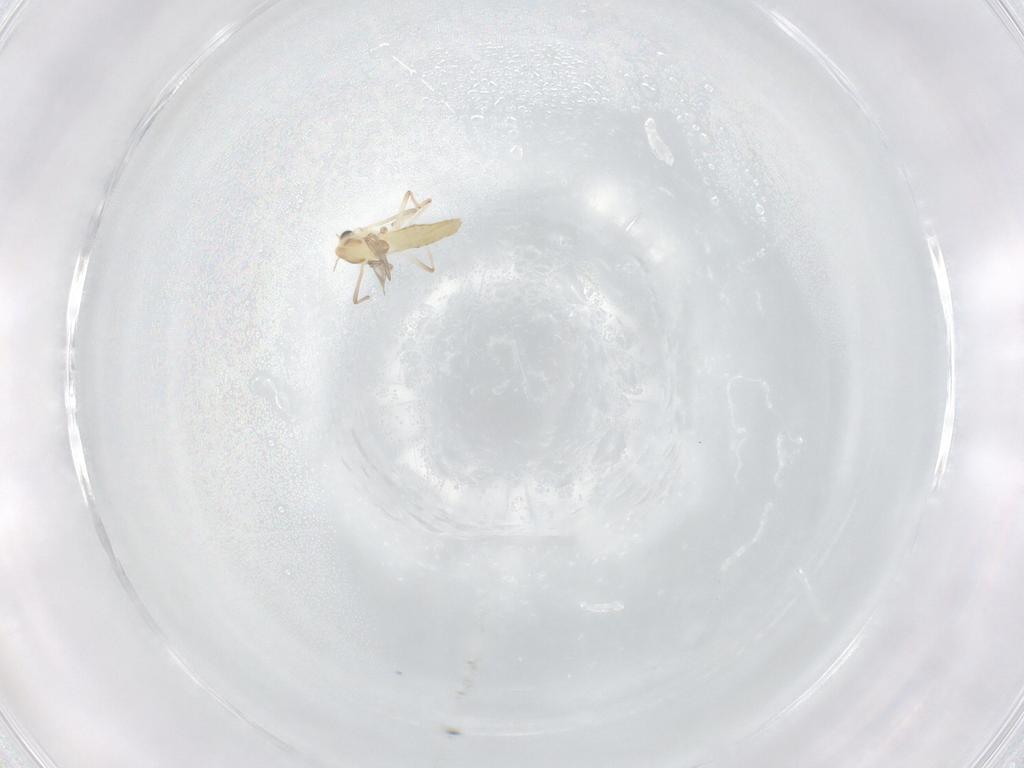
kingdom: Animalia
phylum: Arthropoda
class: Insecta
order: Diptera
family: Chironomidae
